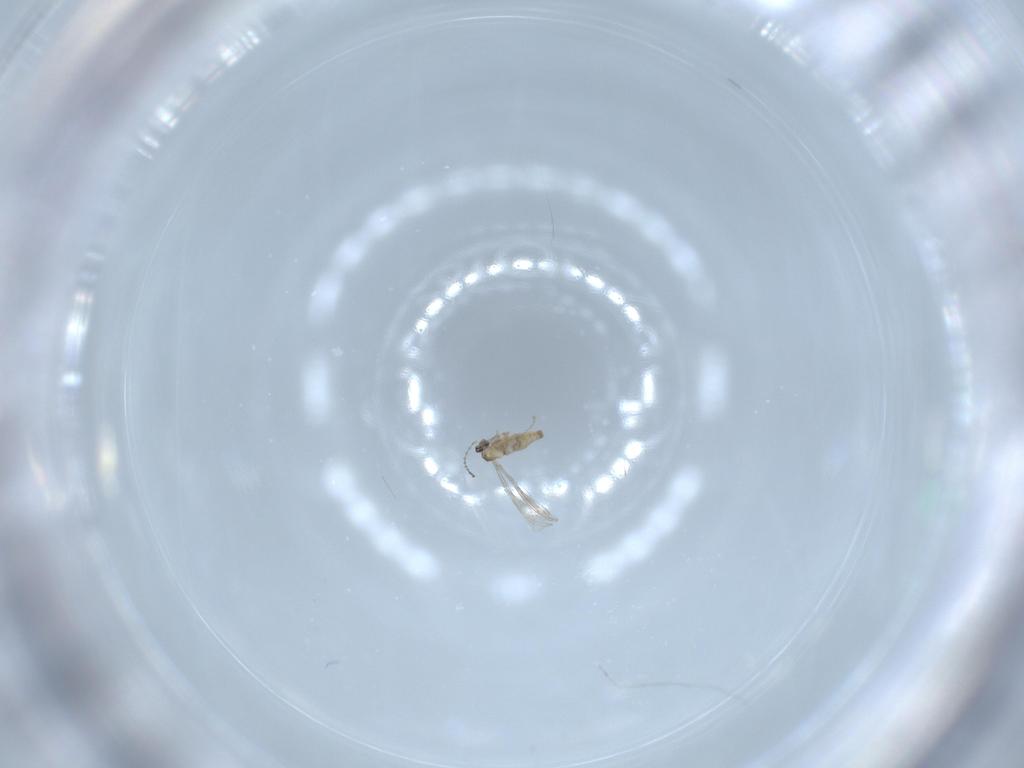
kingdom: Animalia
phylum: Arthropoda
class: Insecta
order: Diptera
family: Cecidomyiidae
